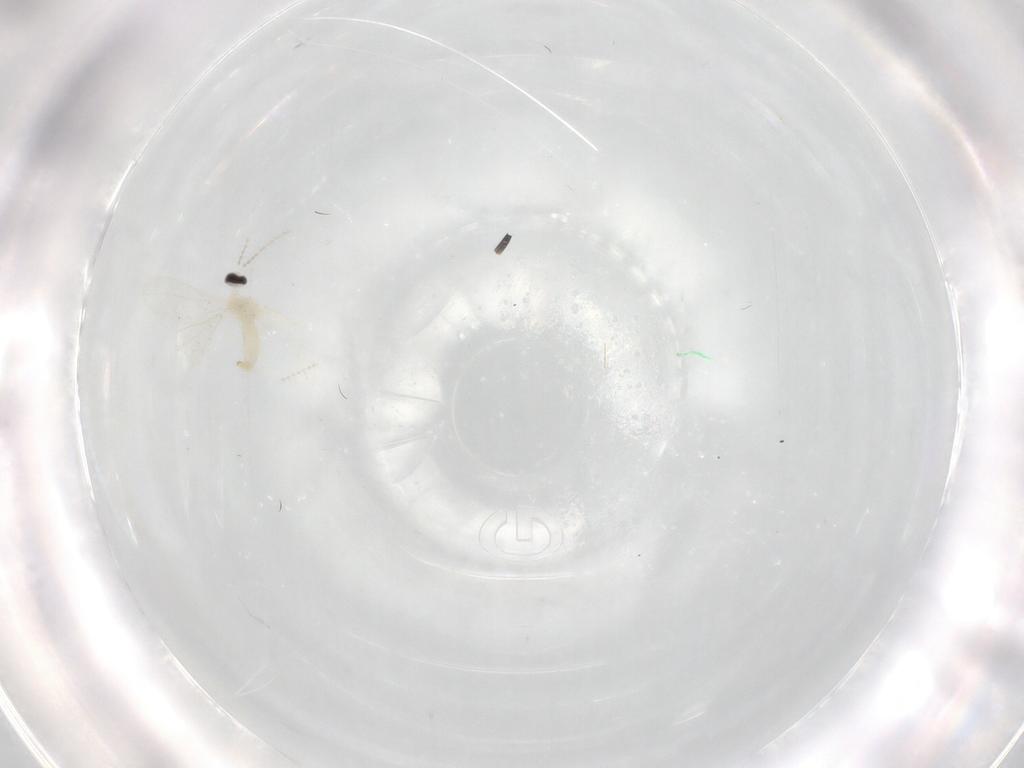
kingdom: Animalia
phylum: Arthropoda
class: Insecta
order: Diptera
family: Cecidomyiidae
